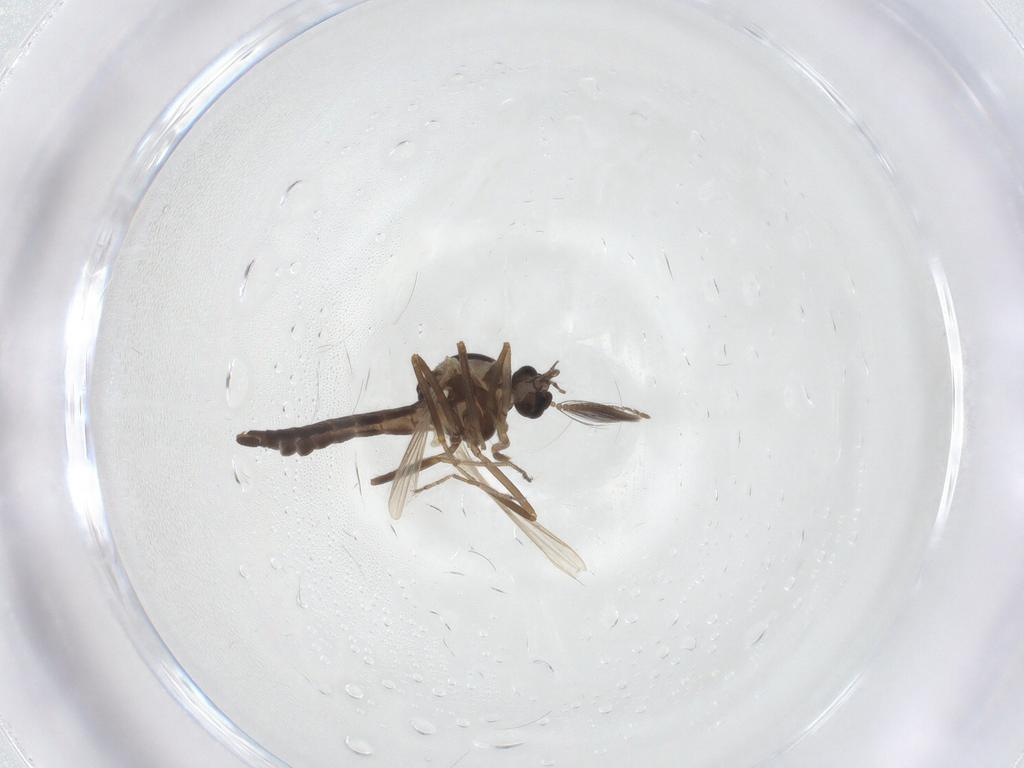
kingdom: Animalia
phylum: Arthropoda
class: Insecta
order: Diptera
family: Ceratopogonidae
